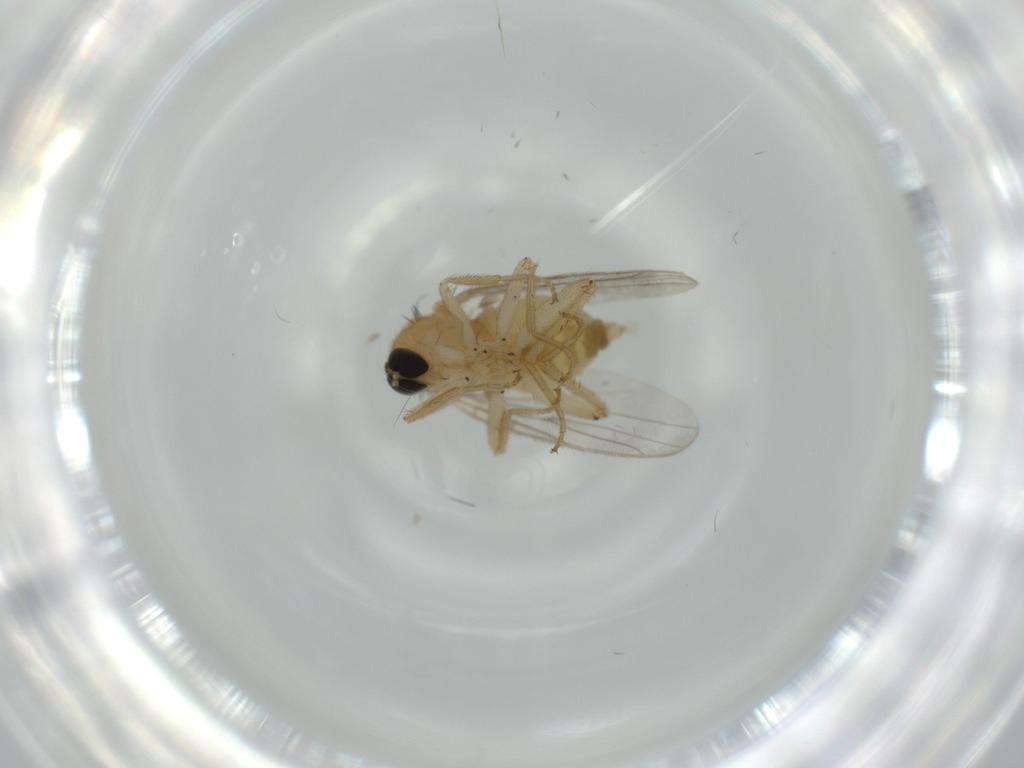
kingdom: Animalia
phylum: Arthropoda
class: Insecta
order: Diptera
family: Hybotidae
